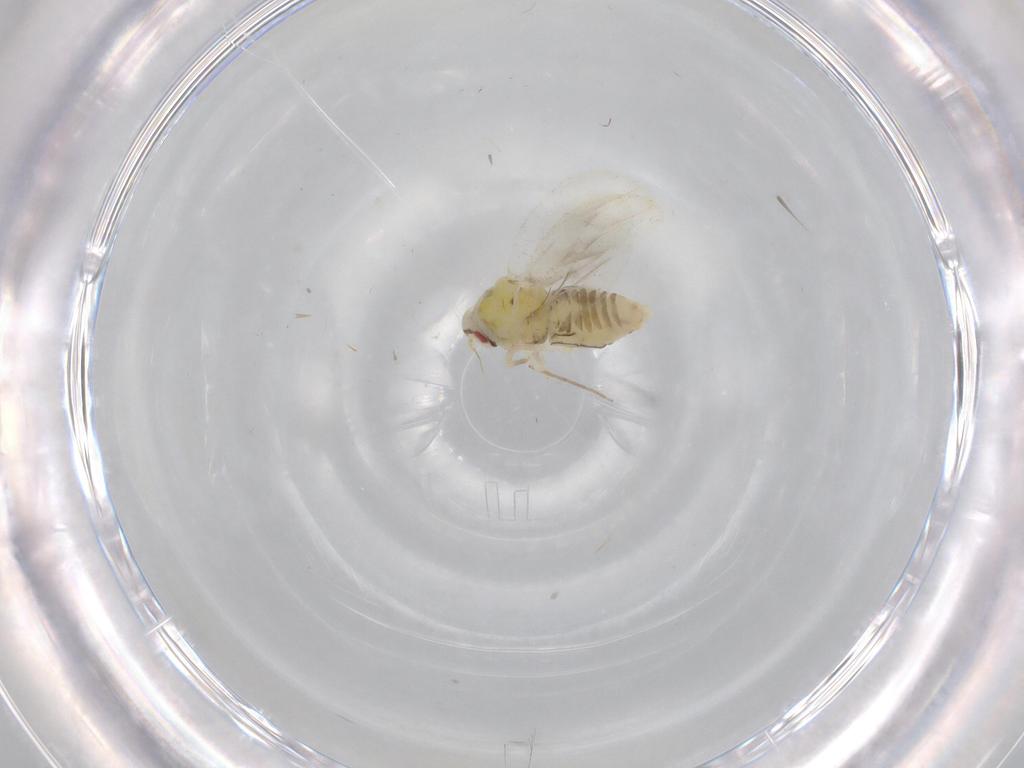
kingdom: Animalia
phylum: Arthropoda
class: Insecta
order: Hemiptera
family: Aleyrodidae
